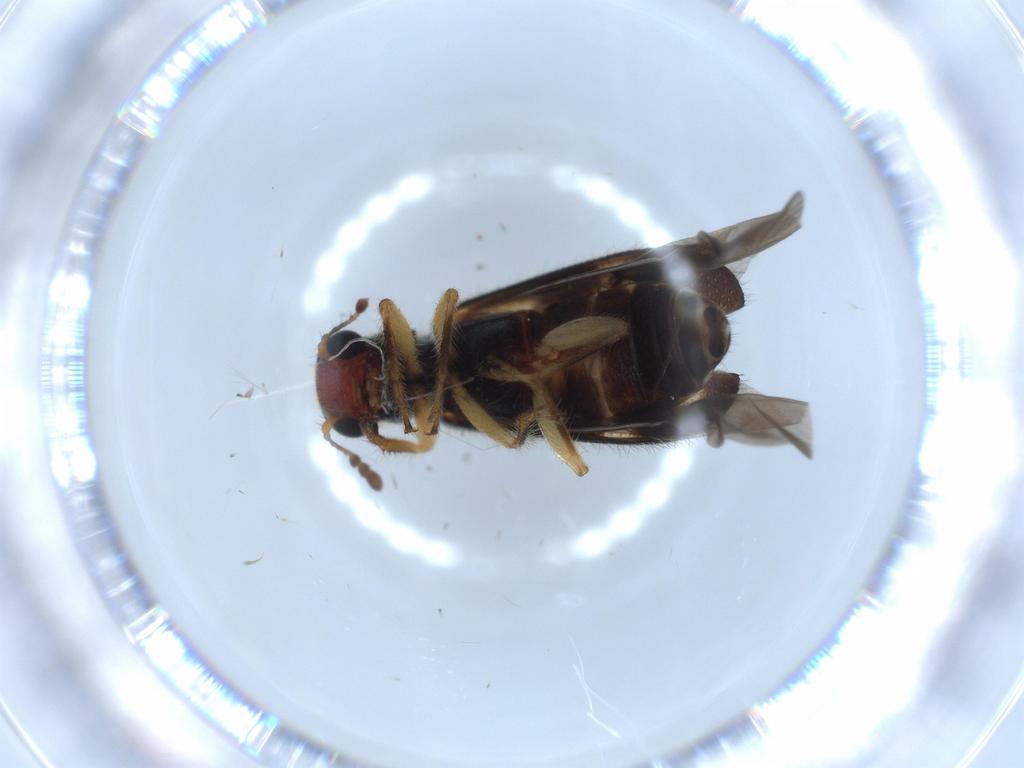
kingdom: Animalia
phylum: Arthropoda
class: Insecta
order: Coleoptera
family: Cleridae
